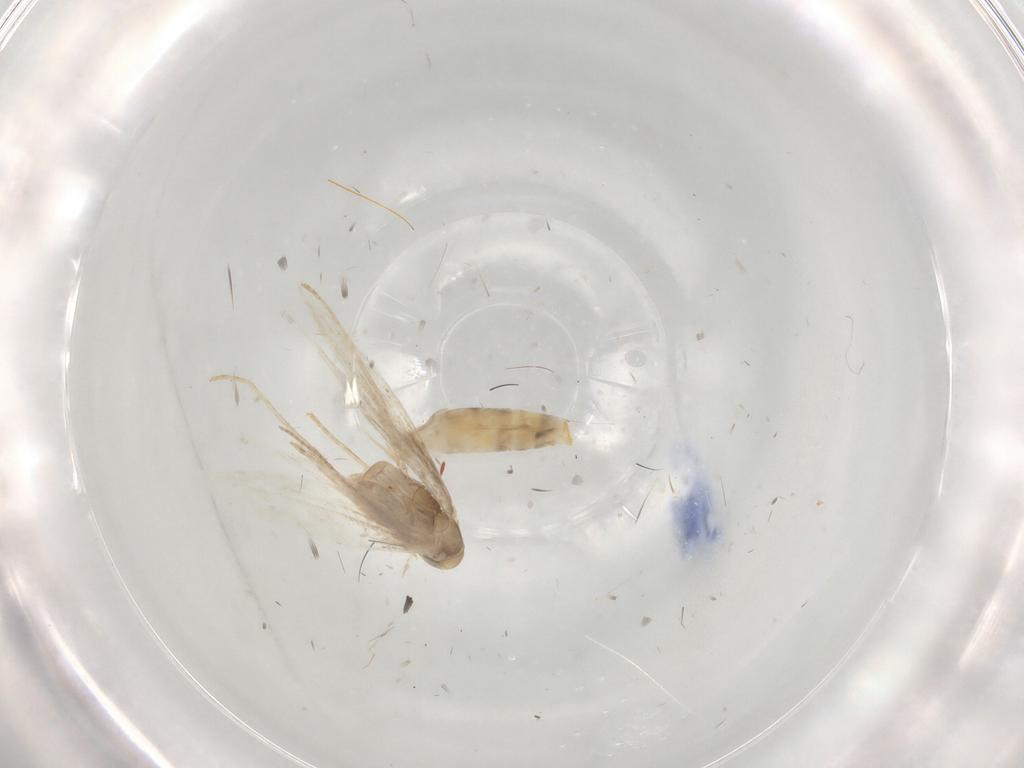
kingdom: Animalia
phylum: Arthropoda
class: Insecta
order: Lepidoptera
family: Gracillariidae
